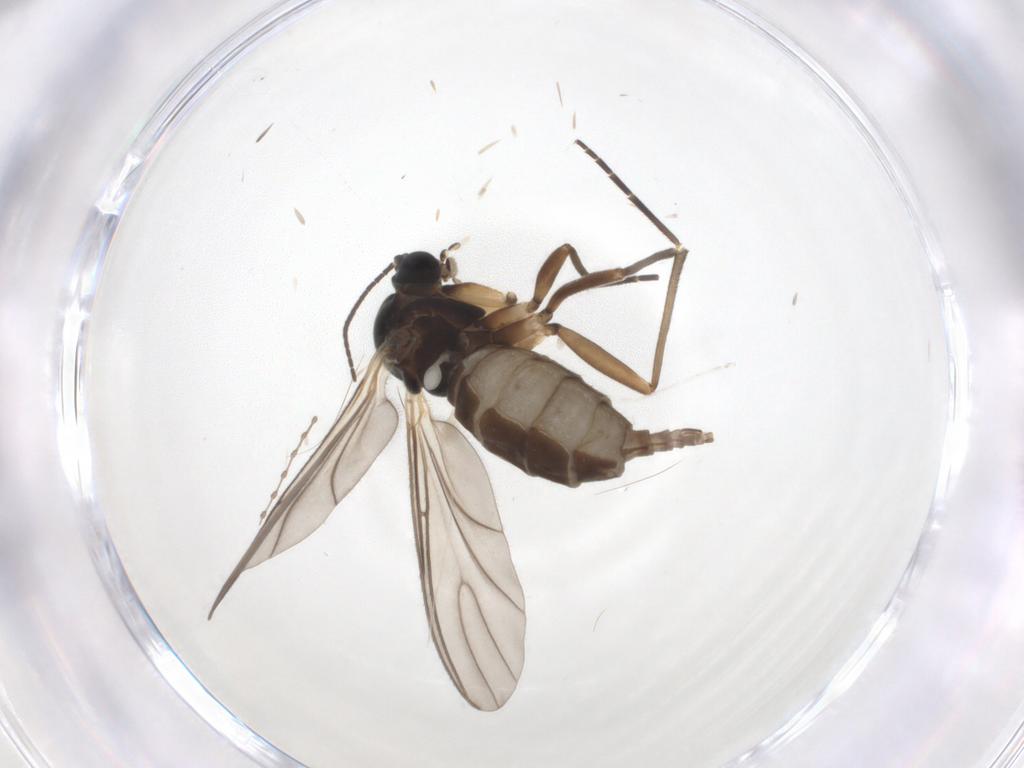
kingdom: Animalia
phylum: Arthropoda
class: Insecta
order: Diptera
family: Sciaridae
